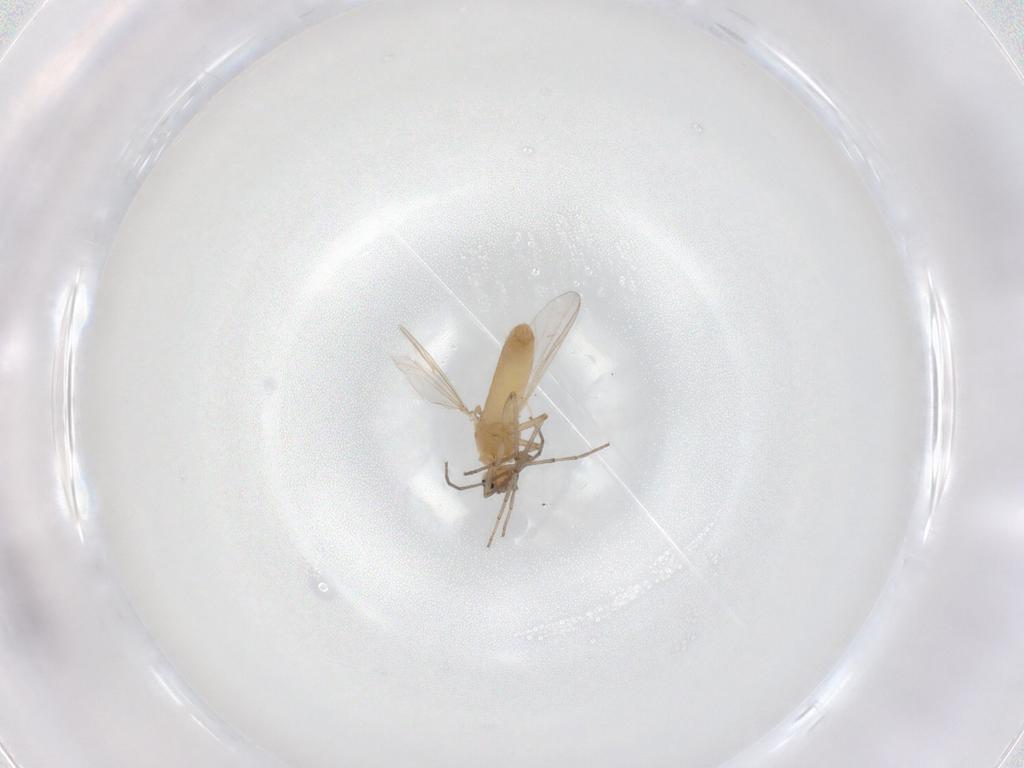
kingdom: Animalia
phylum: Arthropoda
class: Insecta
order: Diptera
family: Chironomidae
